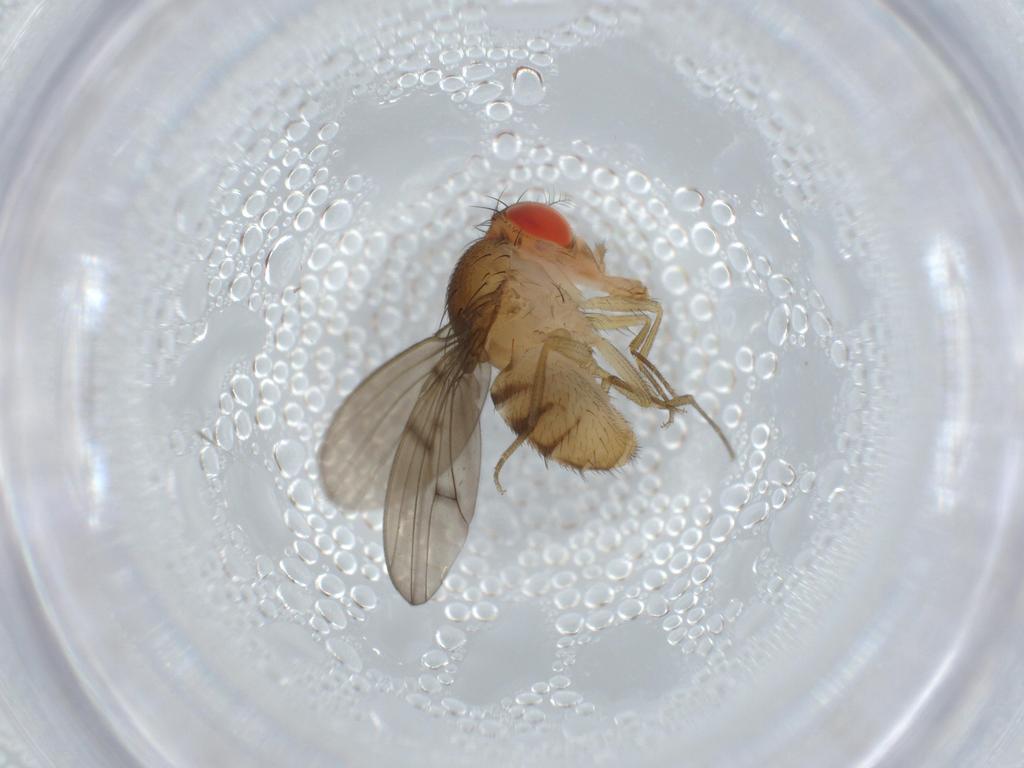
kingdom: Animalia
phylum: Arthropoda
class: Insecta
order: Diptera
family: Drosophilidae
